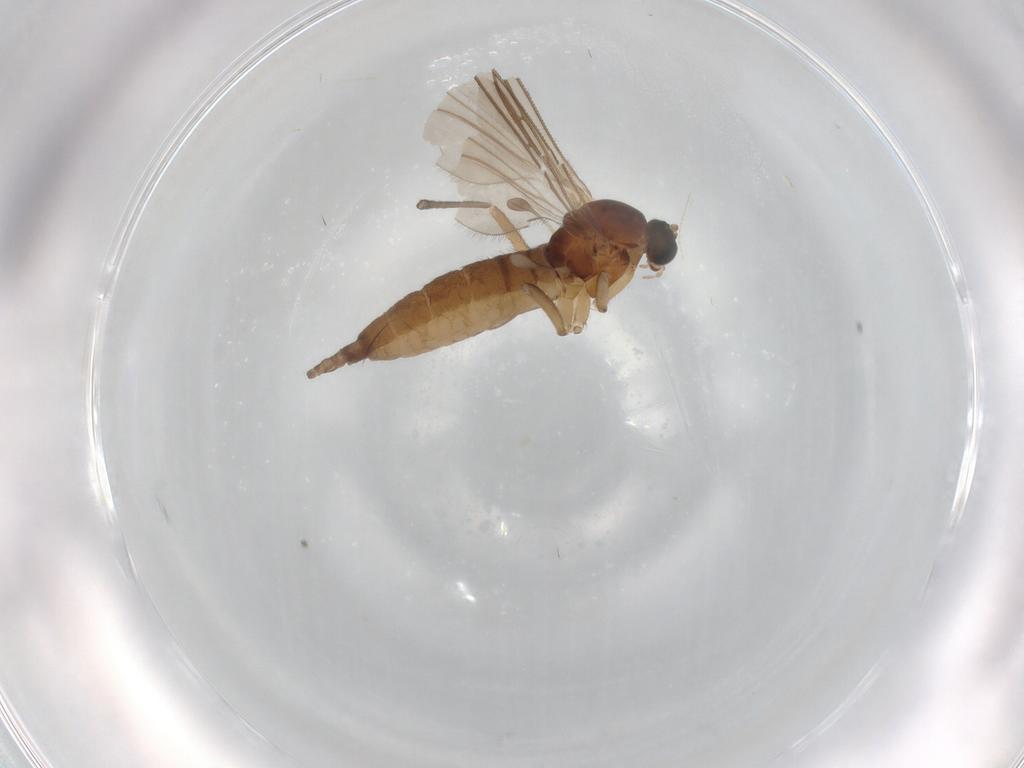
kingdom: Animalia
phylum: Arthropoda
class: Insecta
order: Diptera
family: Sciaridae
